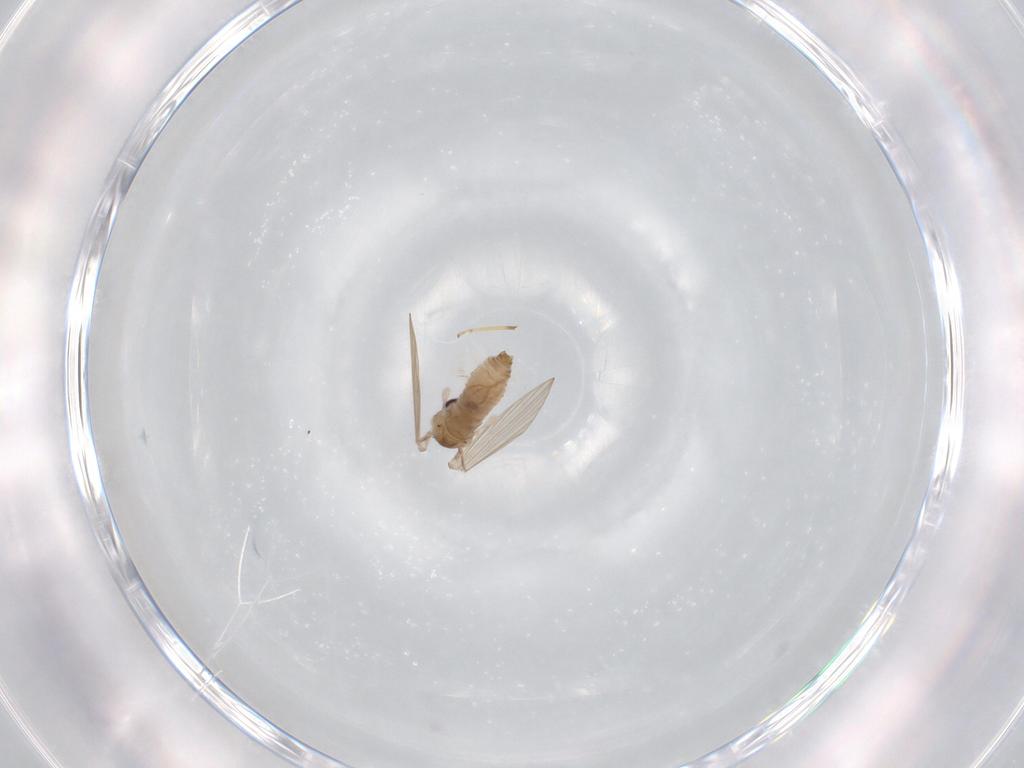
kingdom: Animalia
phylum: Arthropoda
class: Insecta
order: Diptera
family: Psychodidae
